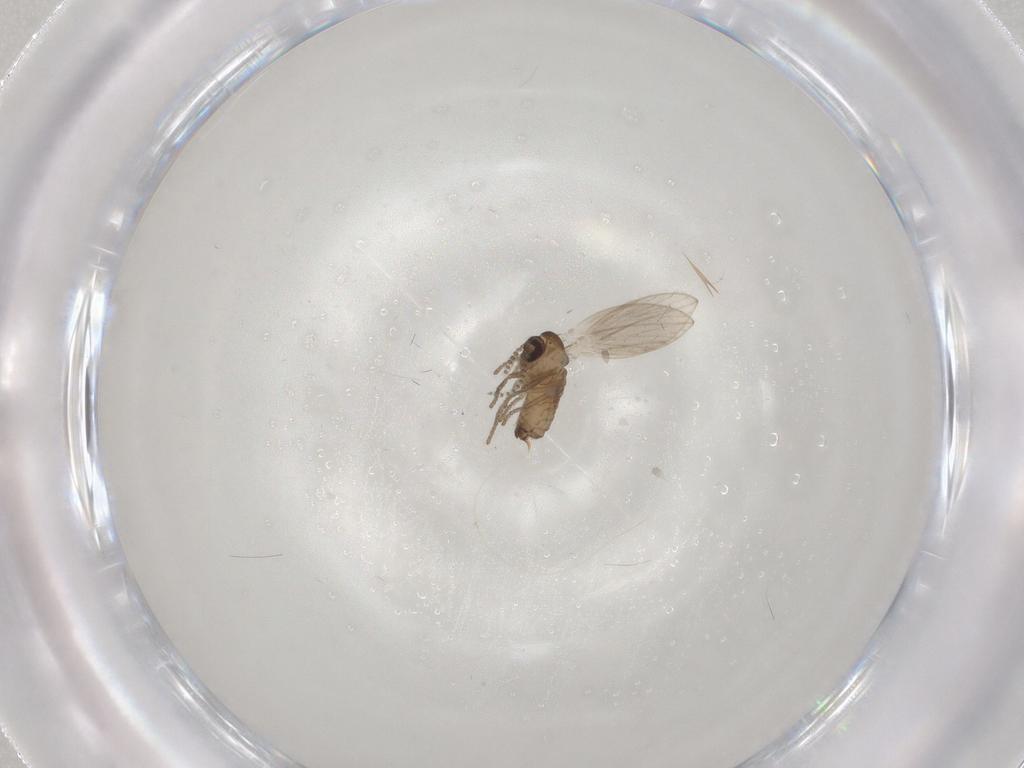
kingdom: Animalia
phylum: Arthropoda
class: Insecta
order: Diptera
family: Psychodidae
